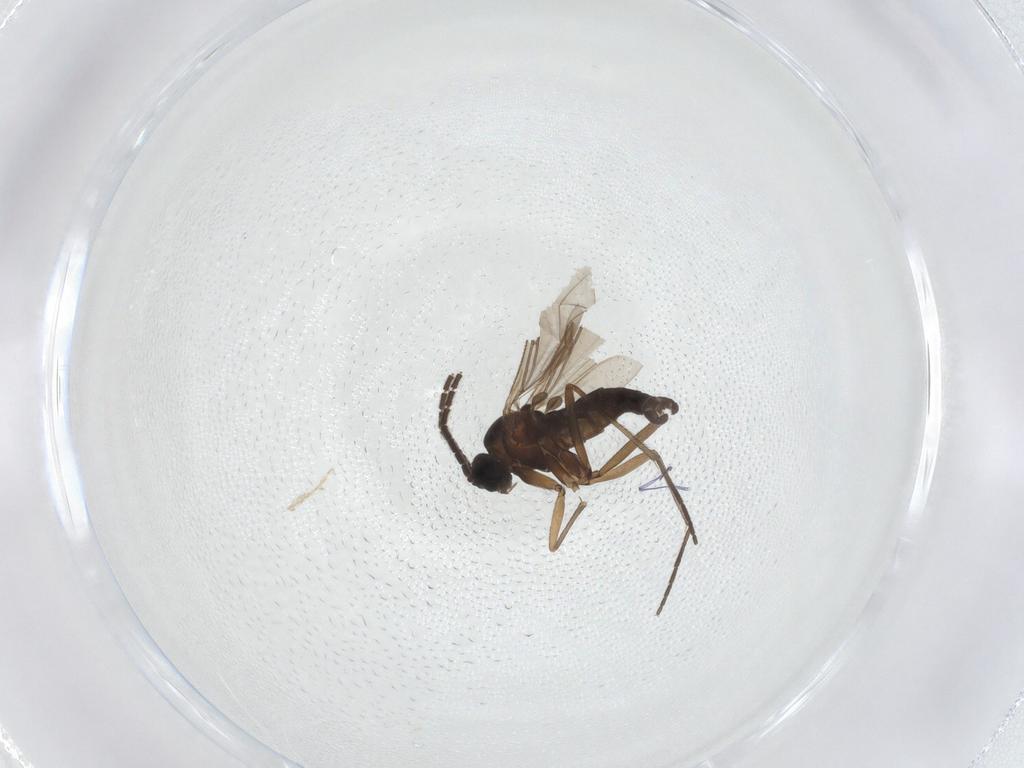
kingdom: Animalia
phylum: Arthropoda
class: Insecta
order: Diptera
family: Sciaridae
